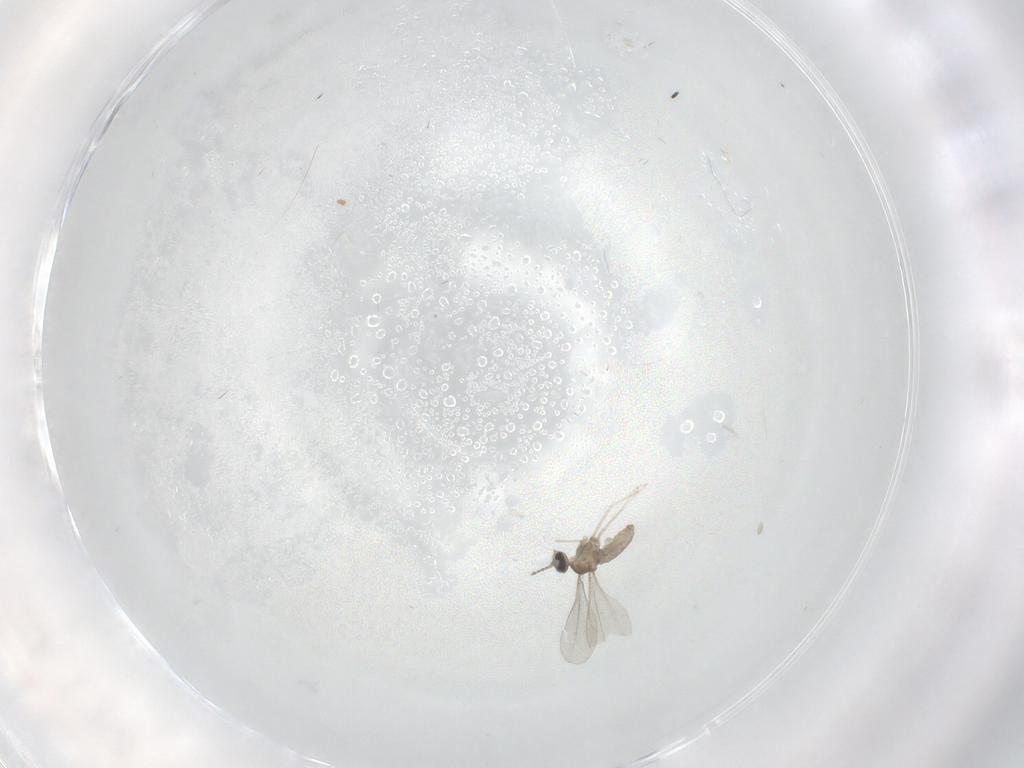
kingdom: Animalia
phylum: Arthropoda
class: Insecta
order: Diptera
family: Cecidomyiidae
